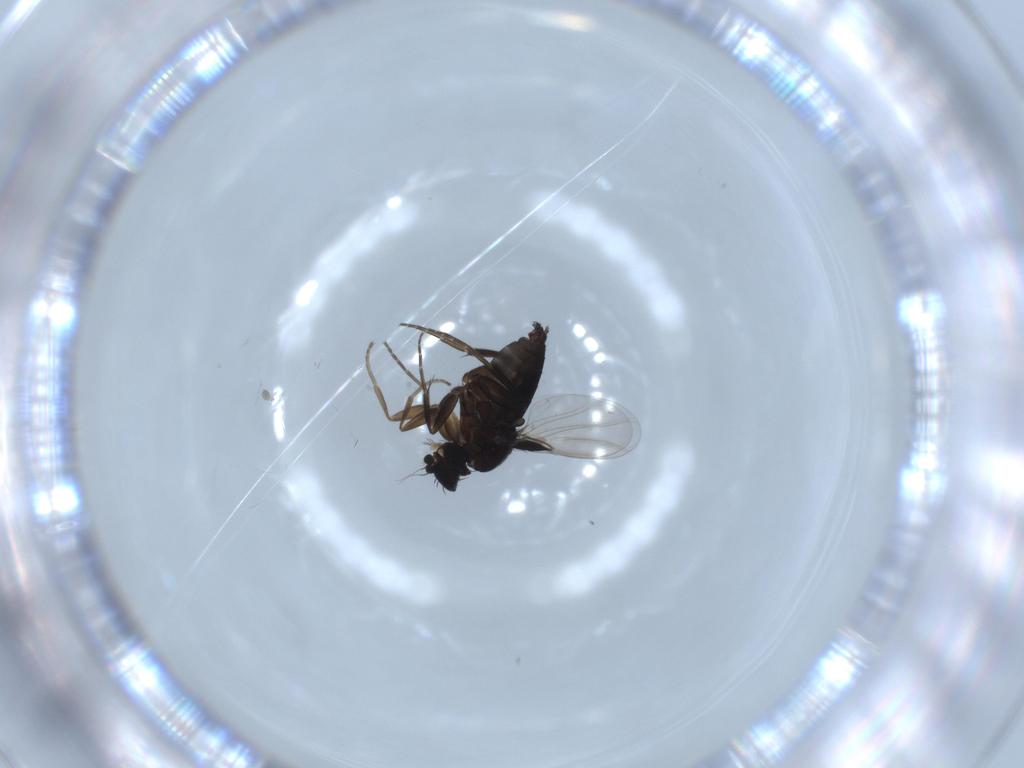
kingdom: Animalia
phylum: Arthropoda
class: Insecta
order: Diptera
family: Phoridae
